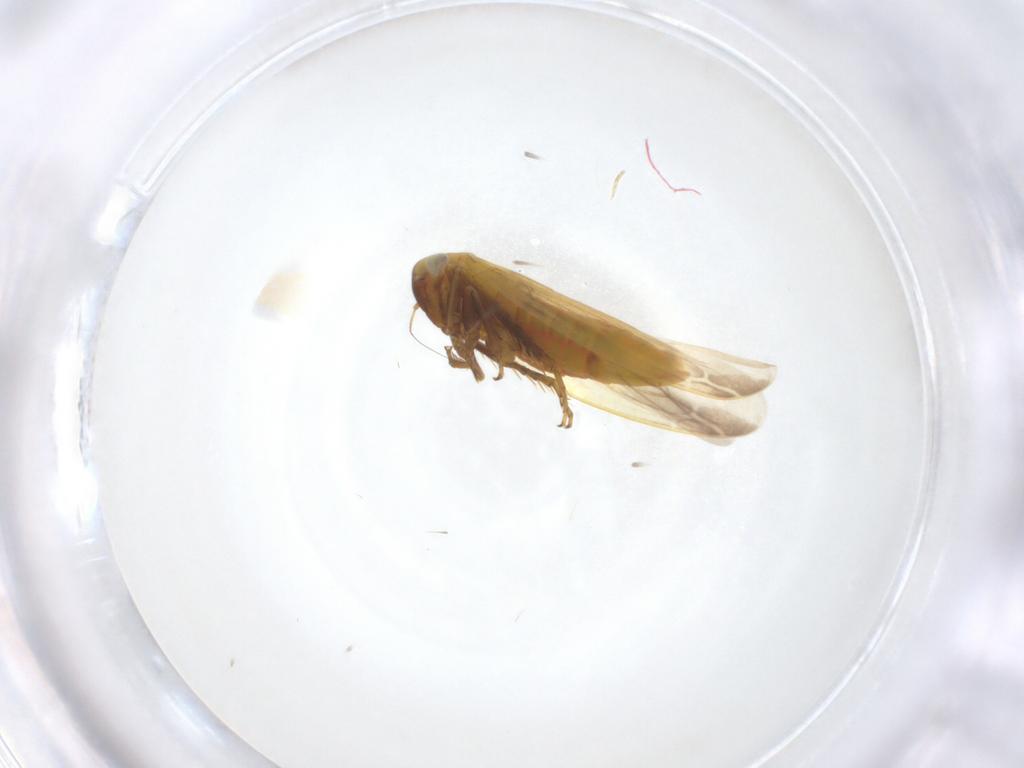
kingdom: Animalia
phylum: Arthropoda
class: Insecta
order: Hemiptera
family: Cicadellidae
